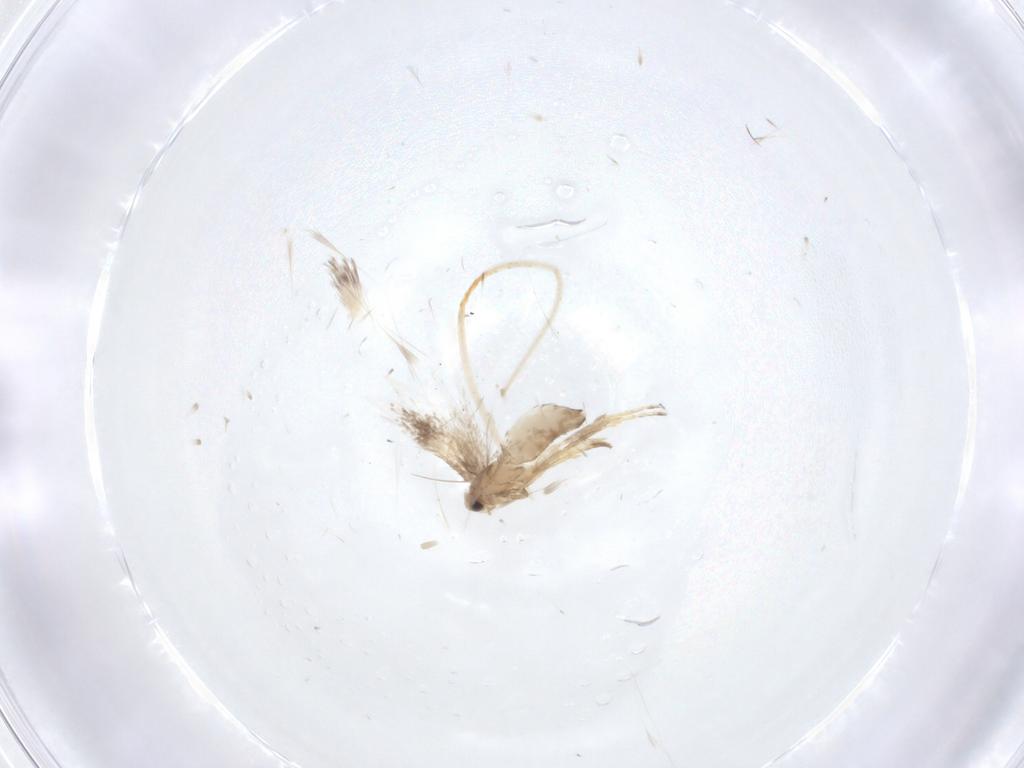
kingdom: Animalia
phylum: Arthropoda
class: Insecta
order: Lepidoptera
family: Nepticulidae
